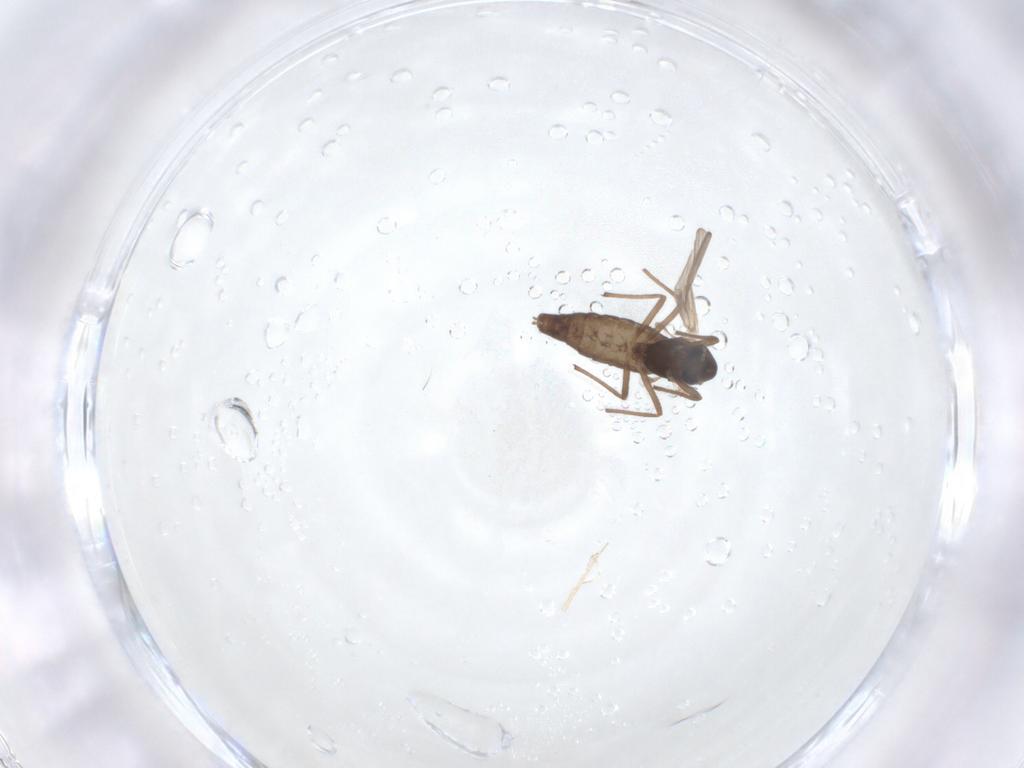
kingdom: Animalia
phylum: Arthropoda
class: Insecta
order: Diptera
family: Chironomidae
